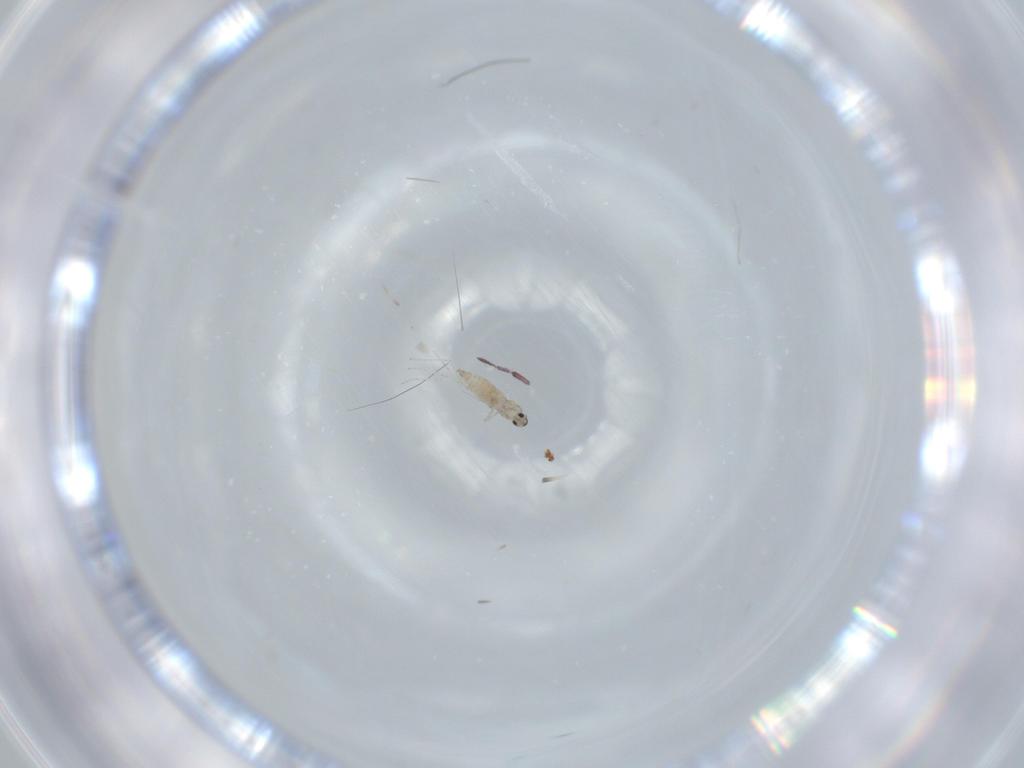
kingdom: Animalia
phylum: Arthropoda
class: Insecta
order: Diptera
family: Cecidomyiidae
